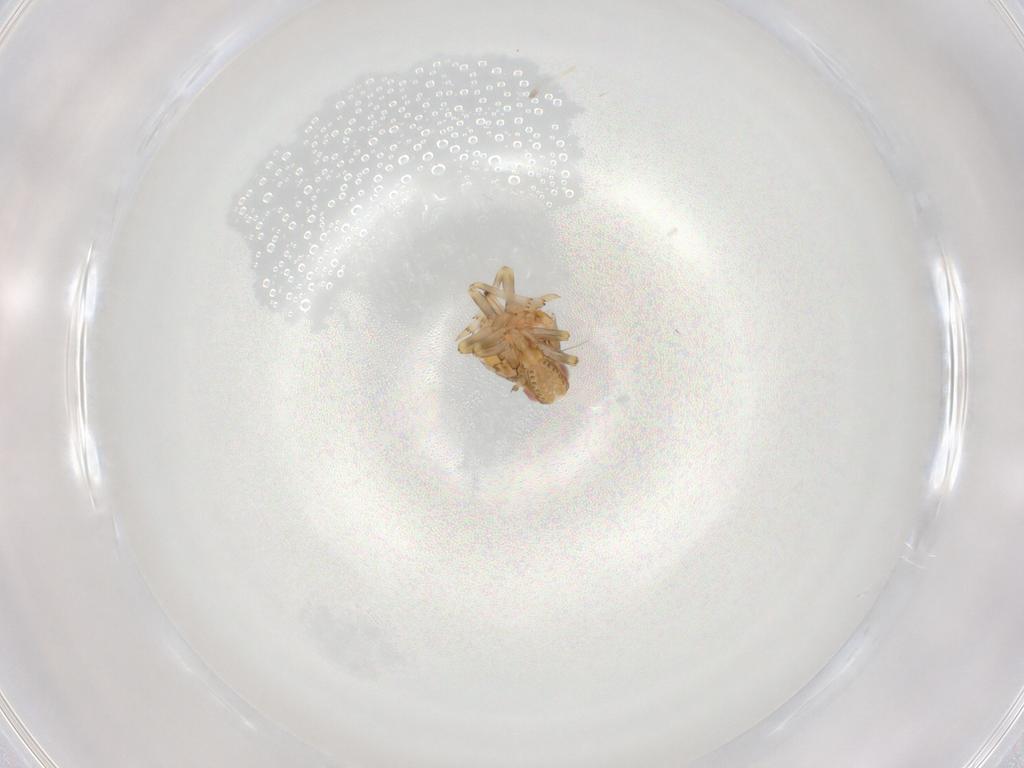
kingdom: Animalia
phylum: Arthropoda
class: Insecta
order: Hemiptera
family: Nogodinidae
